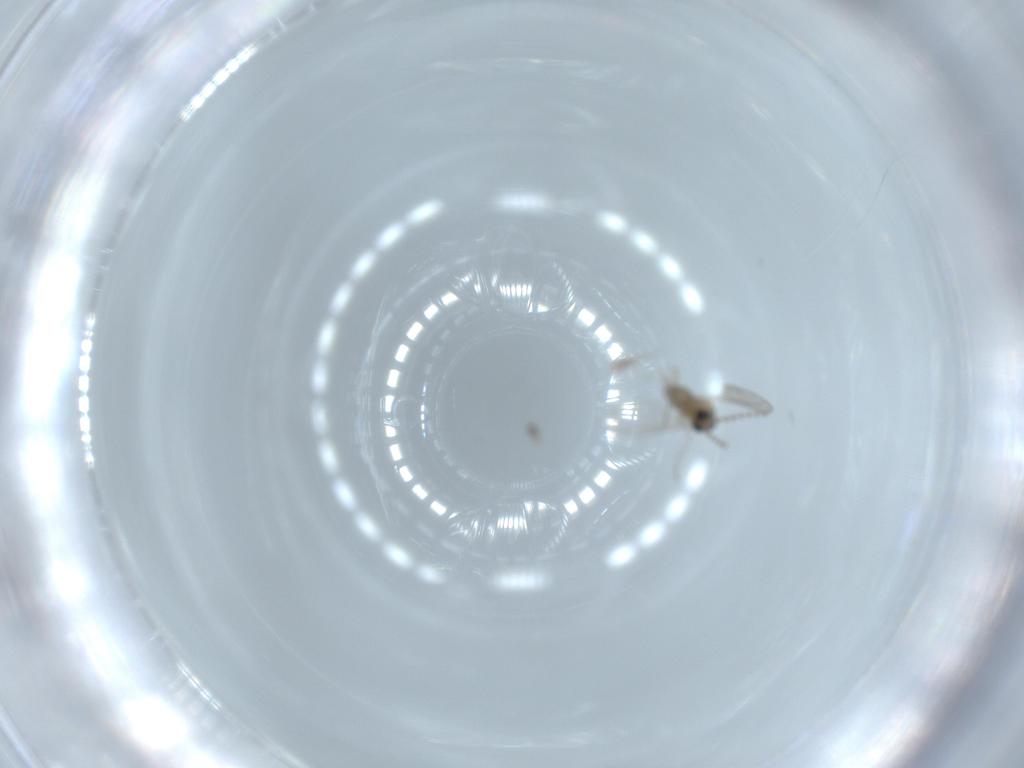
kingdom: Animalia
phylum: Arthropoda
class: Insecta
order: Diptera
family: Cecidomyiidae
